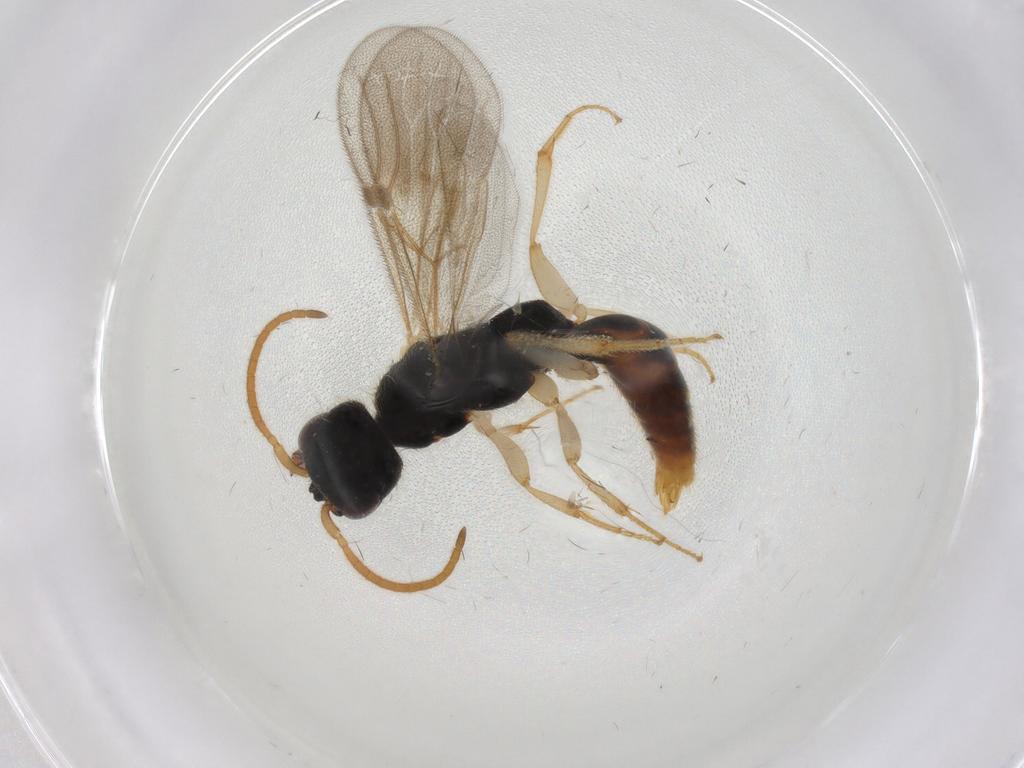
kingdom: Animalia
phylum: Arthropoda
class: Insecta
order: Hymenoptera
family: Bethylidae
